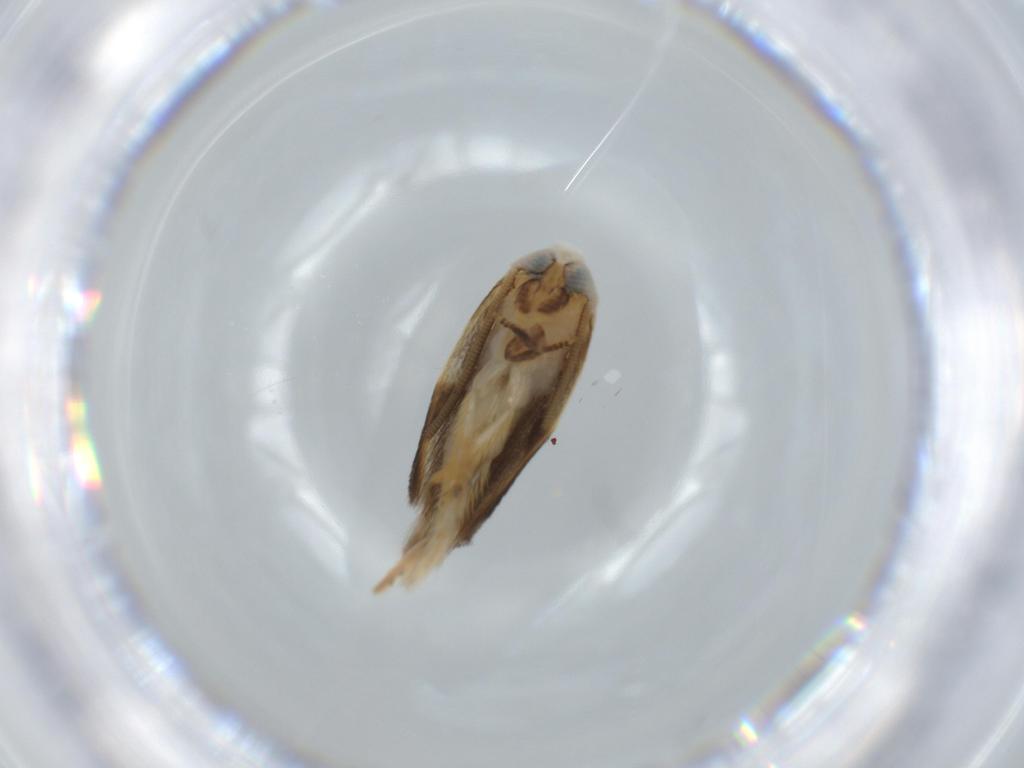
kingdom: Animalia
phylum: Arthropoda
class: Insecta
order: Lepidoptera
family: Opostegidae
